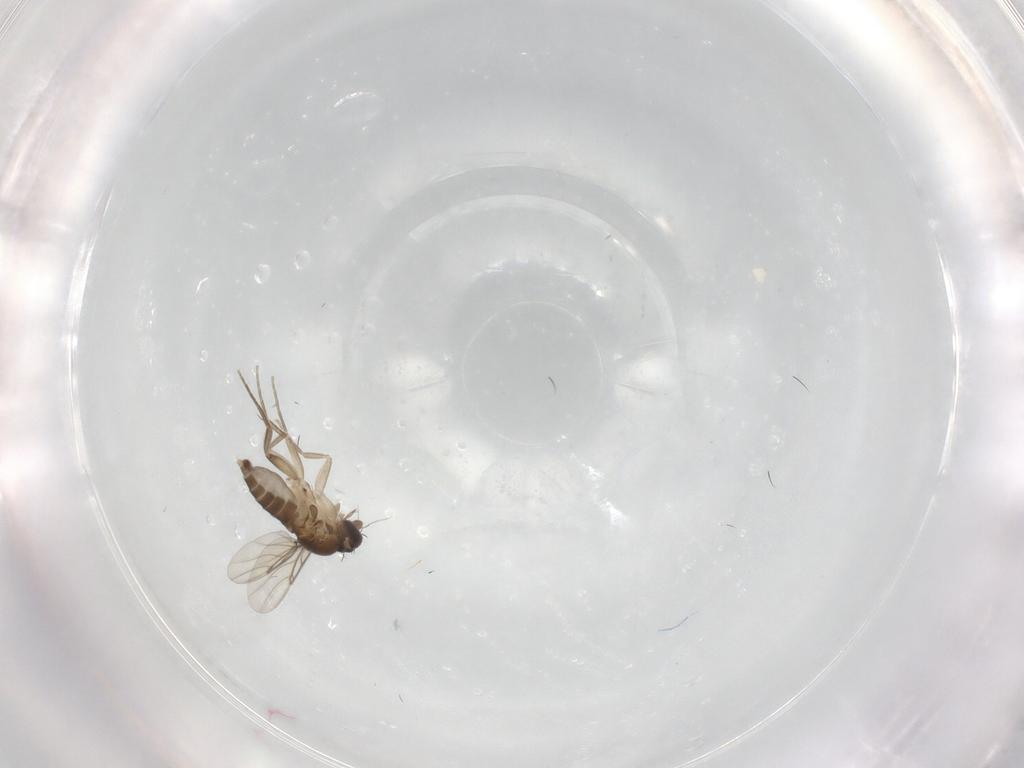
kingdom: Animalia
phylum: Arthropoda
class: Insecta
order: Diptera
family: Phoridae
